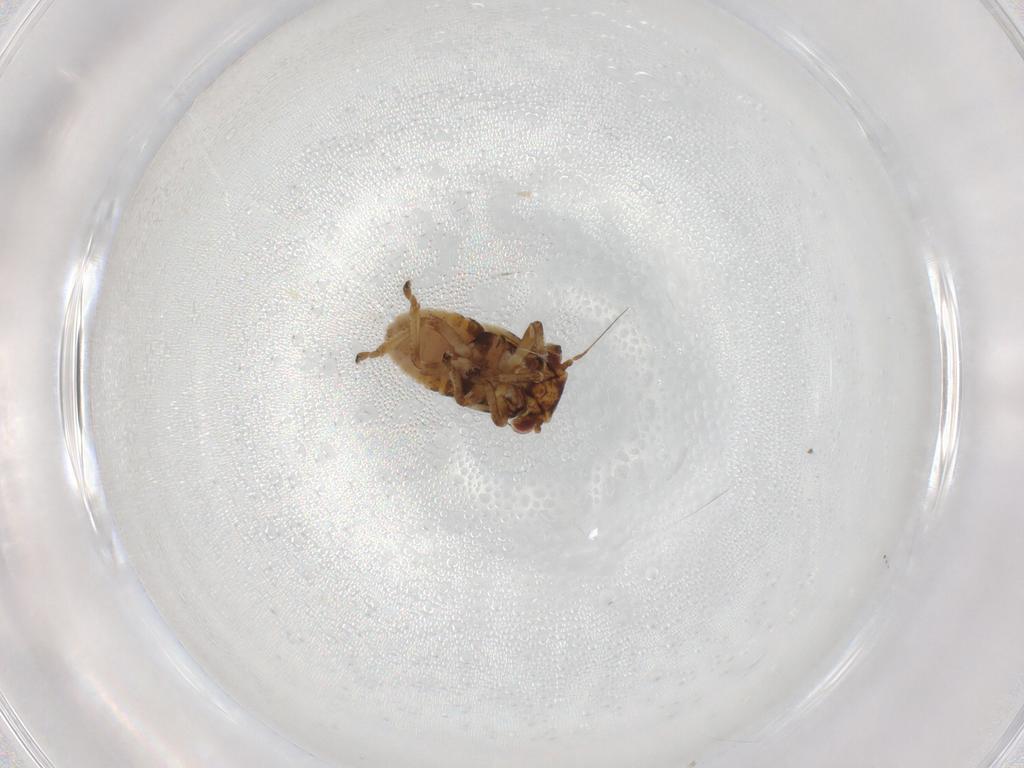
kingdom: Animalia
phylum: Arthropoda
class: Insecta
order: Hemiptera
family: Cicadellidae
